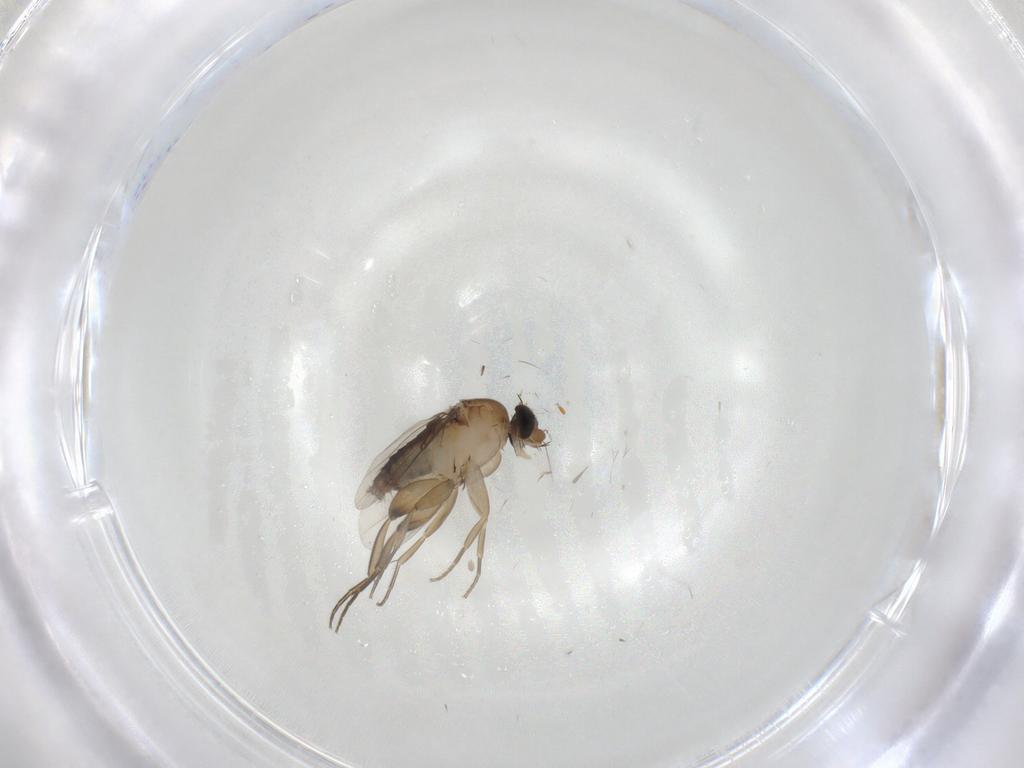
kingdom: Animalia
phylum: Arthropoda
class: Insecta
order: Diptera
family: Phoridae
